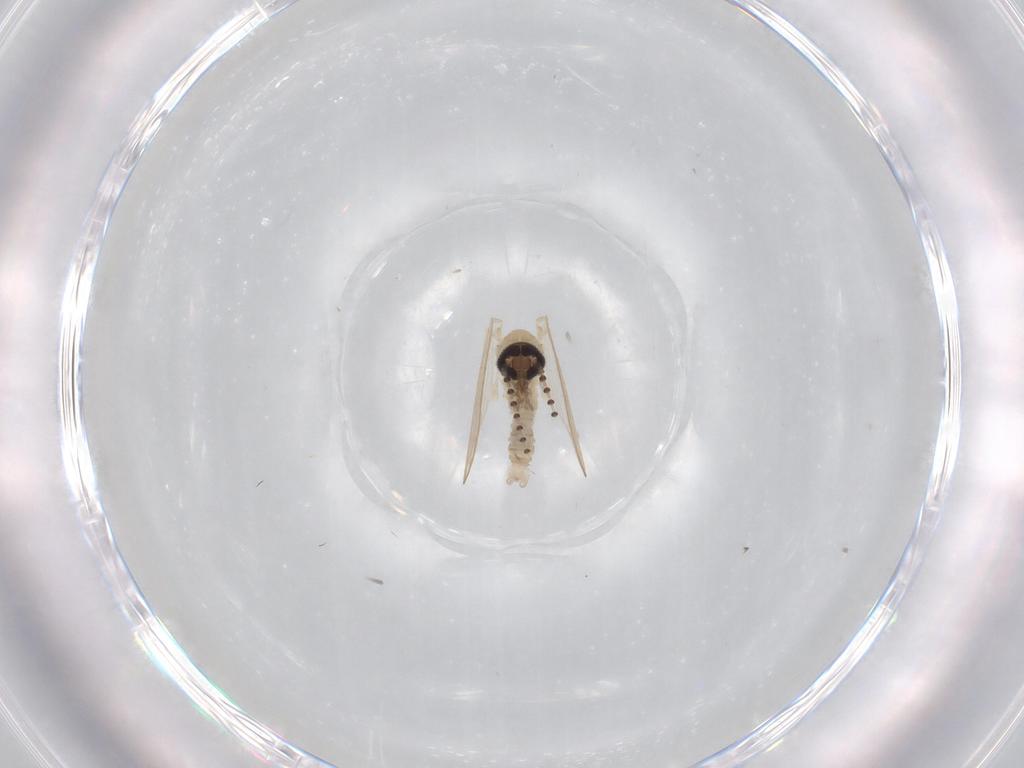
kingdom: Animalia
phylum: Arthropoda
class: Insecta
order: Diptera
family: Psychodidae
